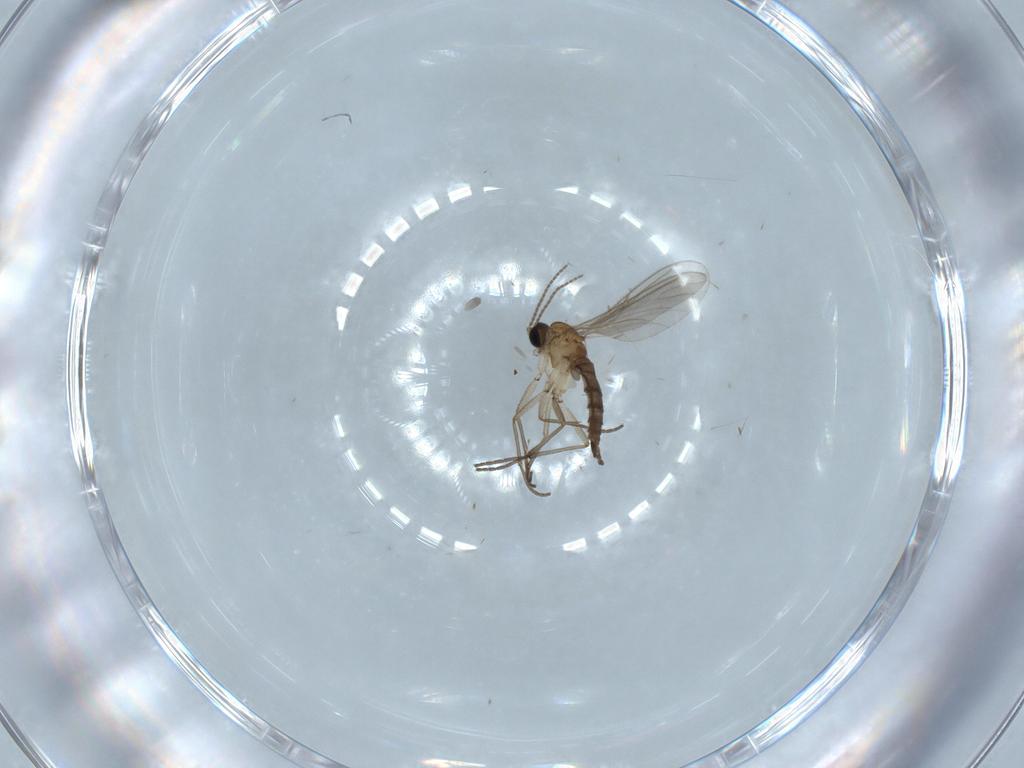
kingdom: Animalia
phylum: Arthropoda
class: Insecta
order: Diptera
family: Sciaridae
